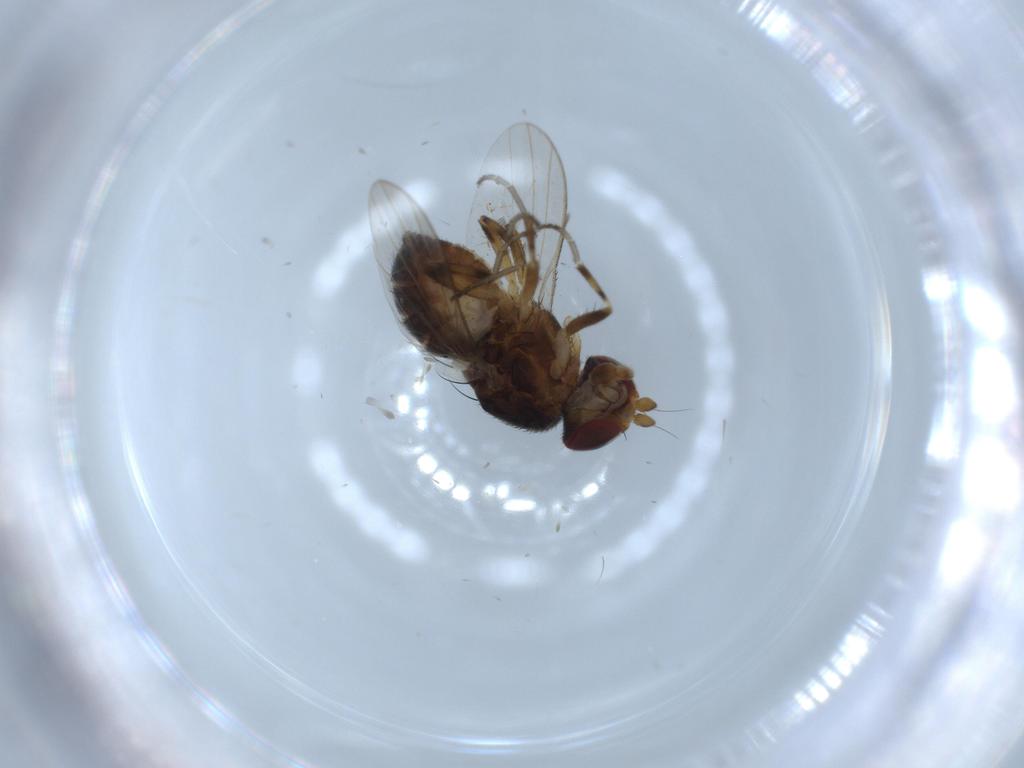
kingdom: Animalia
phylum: Arthropoda
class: Insecta
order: Diptera
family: Heleomyzidae
